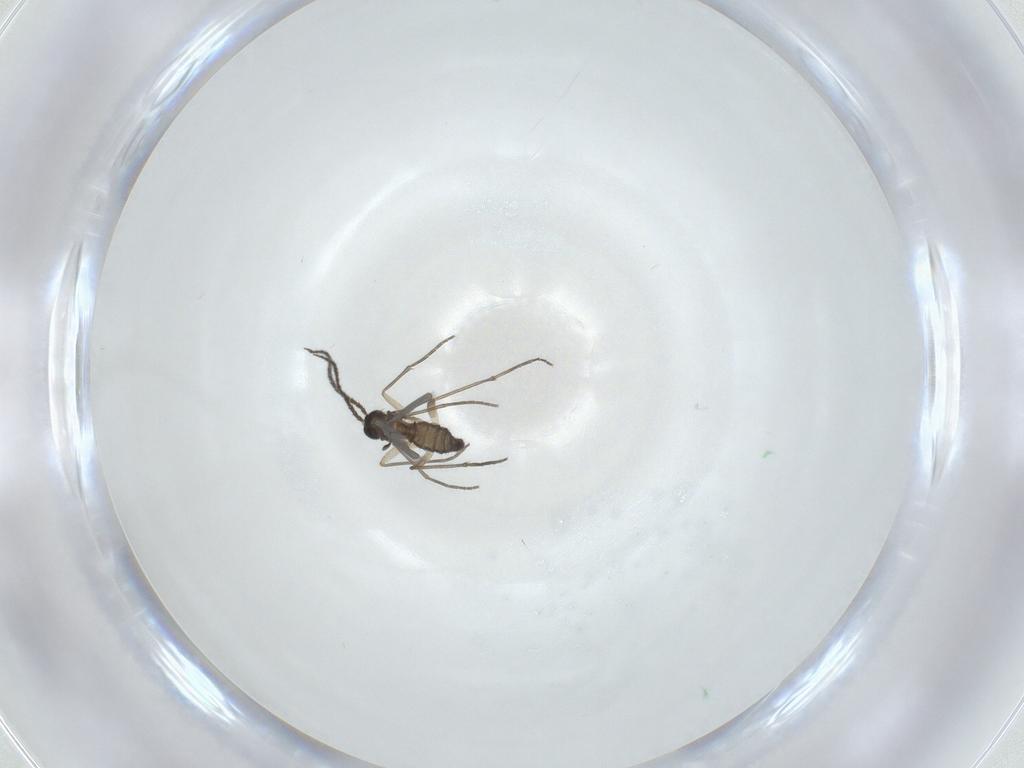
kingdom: Animalia
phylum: Arthropoda
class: Insecta
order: Diptera
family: Sciaridae
